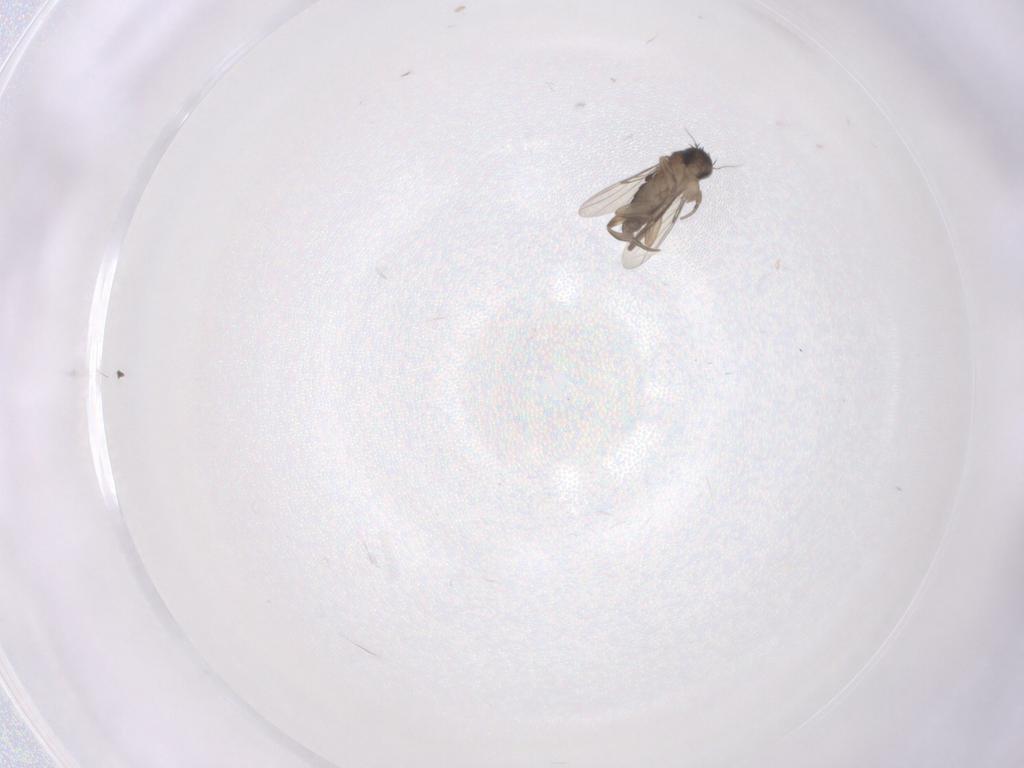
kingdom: Animalia
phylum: Arthropoda
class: Insecta
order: Diptera
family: Phoridae
